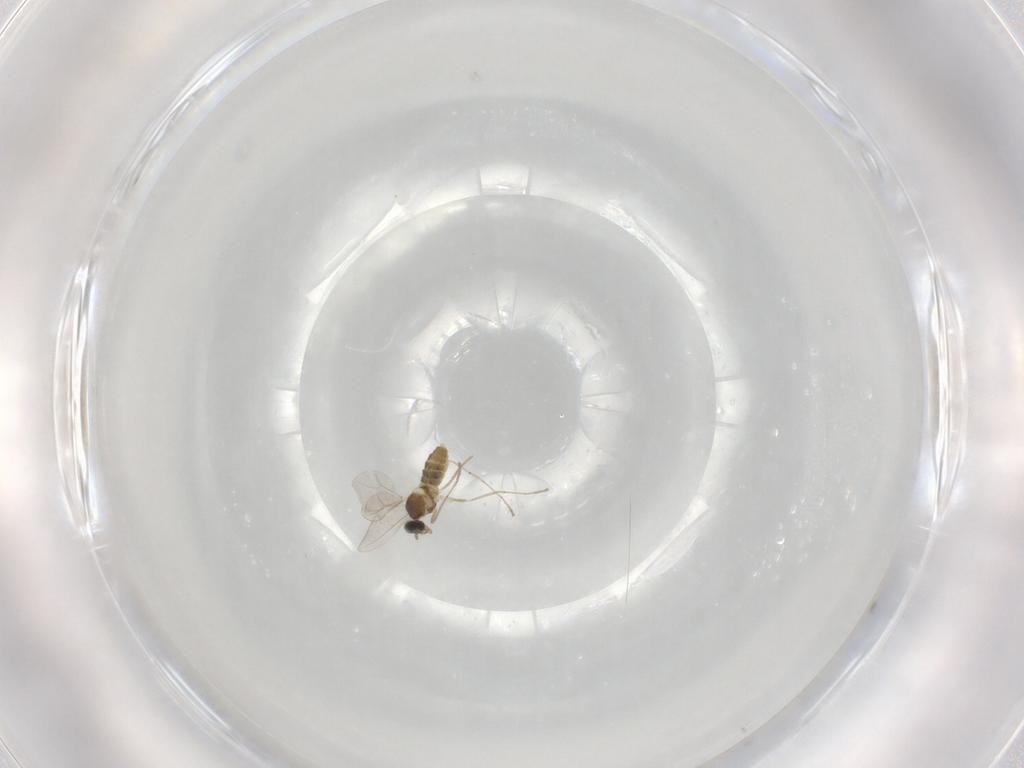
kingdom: Animalia
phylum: Arthropoda
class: Insecta
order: Diptera
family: Cecidomyiidae
